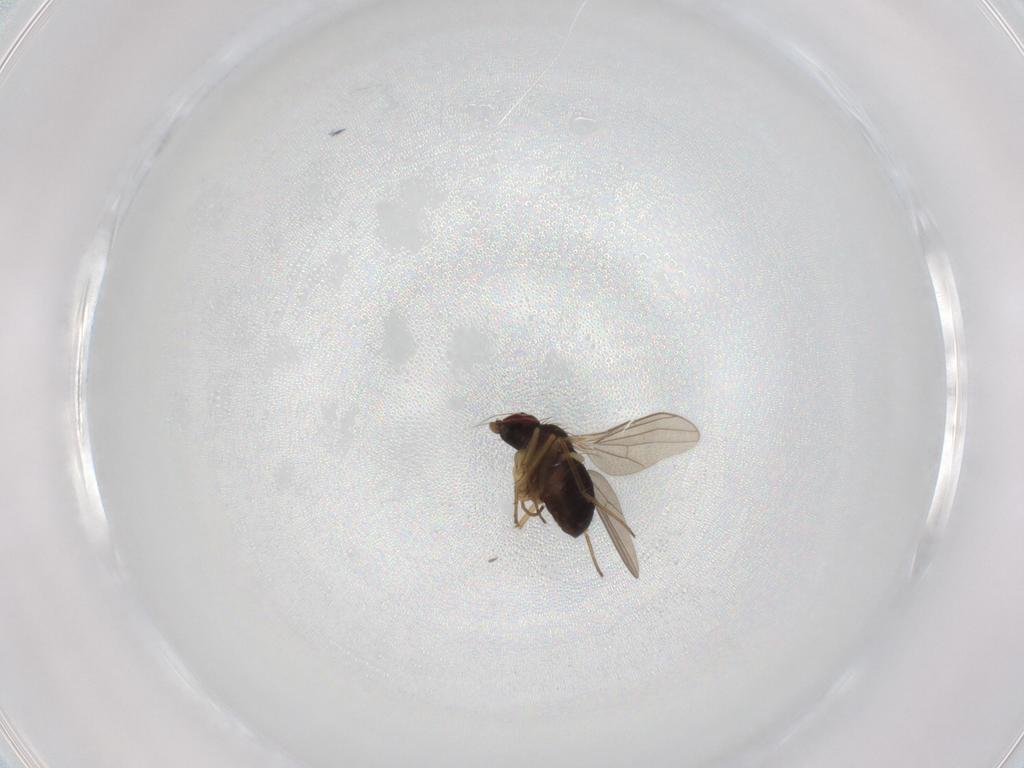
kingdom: Animalia
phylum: Arthropoda
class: Insecta
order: Diptera
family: Dolichopodidae
